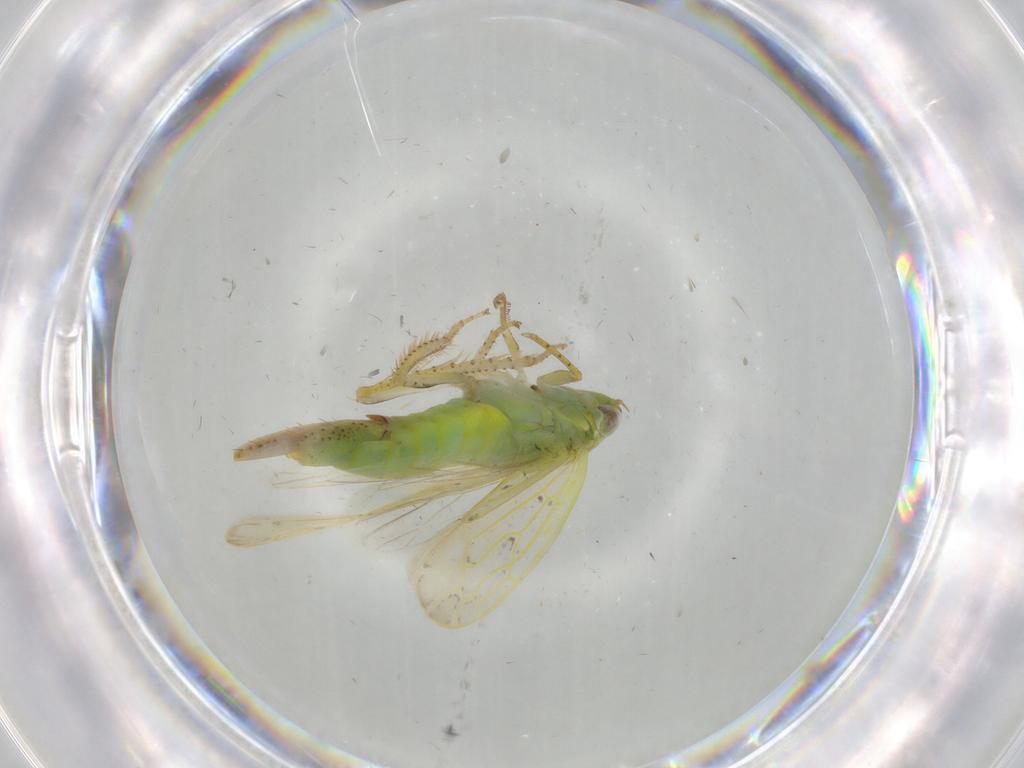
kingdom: Animalia
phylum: Arthropoda
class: Insecta
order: Hemiptera
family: Cicadellidae
